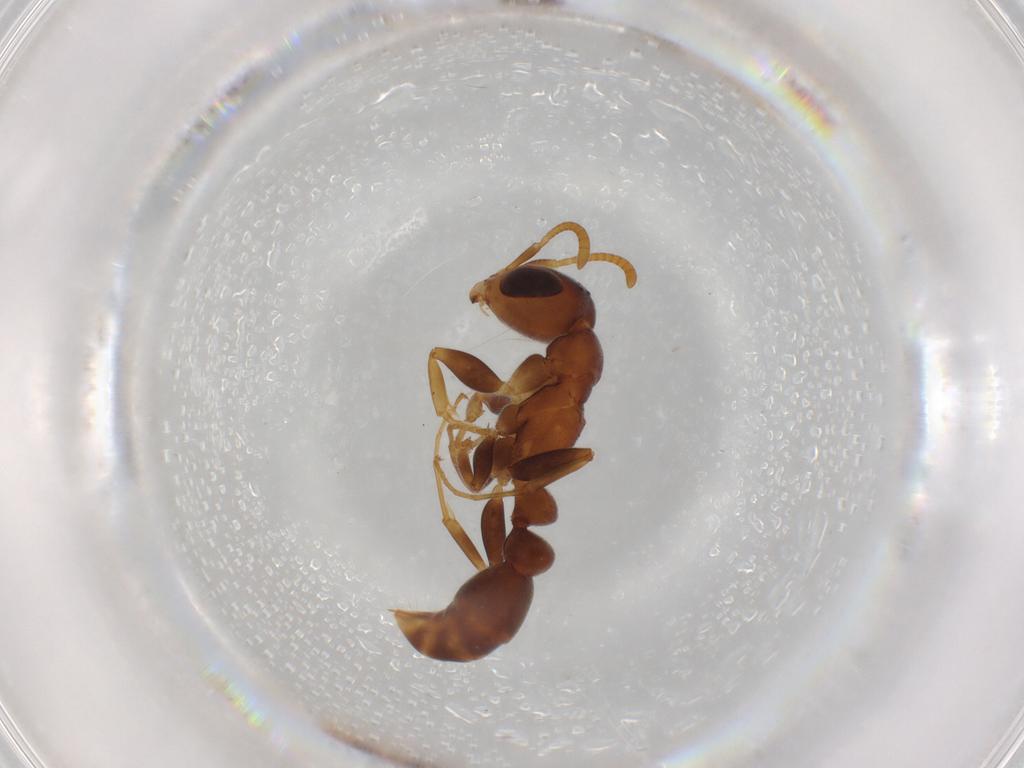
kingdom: Animalia
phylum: Arthropoda
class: Insecta
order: Hymenoptera
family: Formicidae
